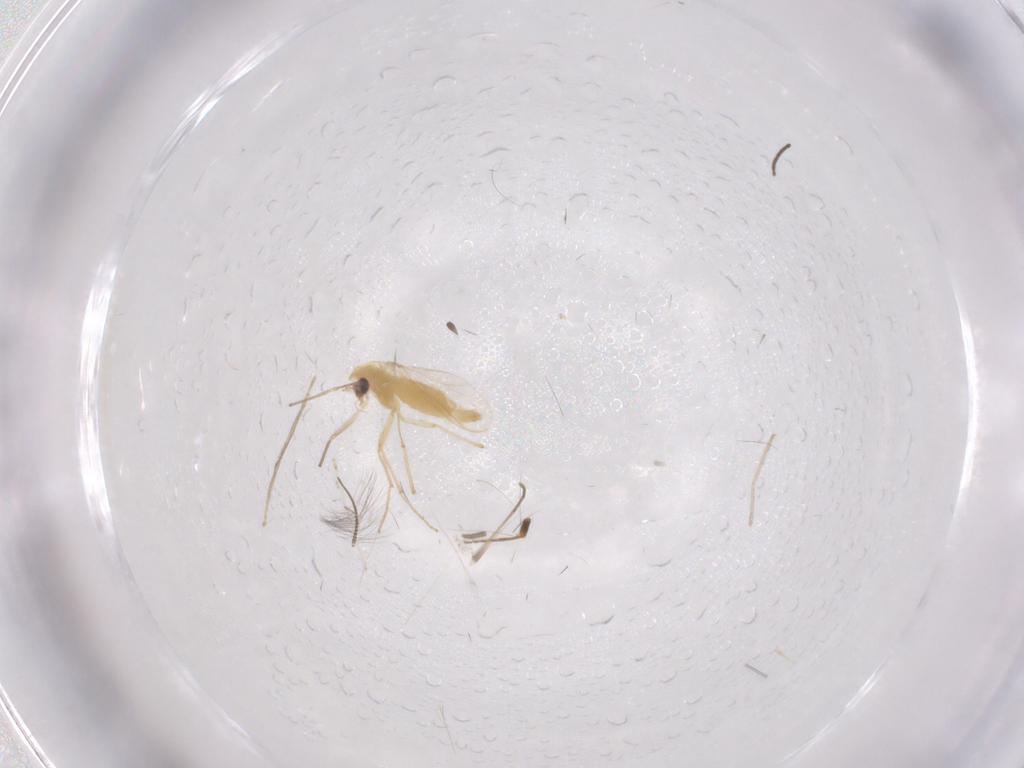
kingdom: Animalia
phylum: Arthropoda
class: Insecta
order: Diptera
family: Chironomidae
